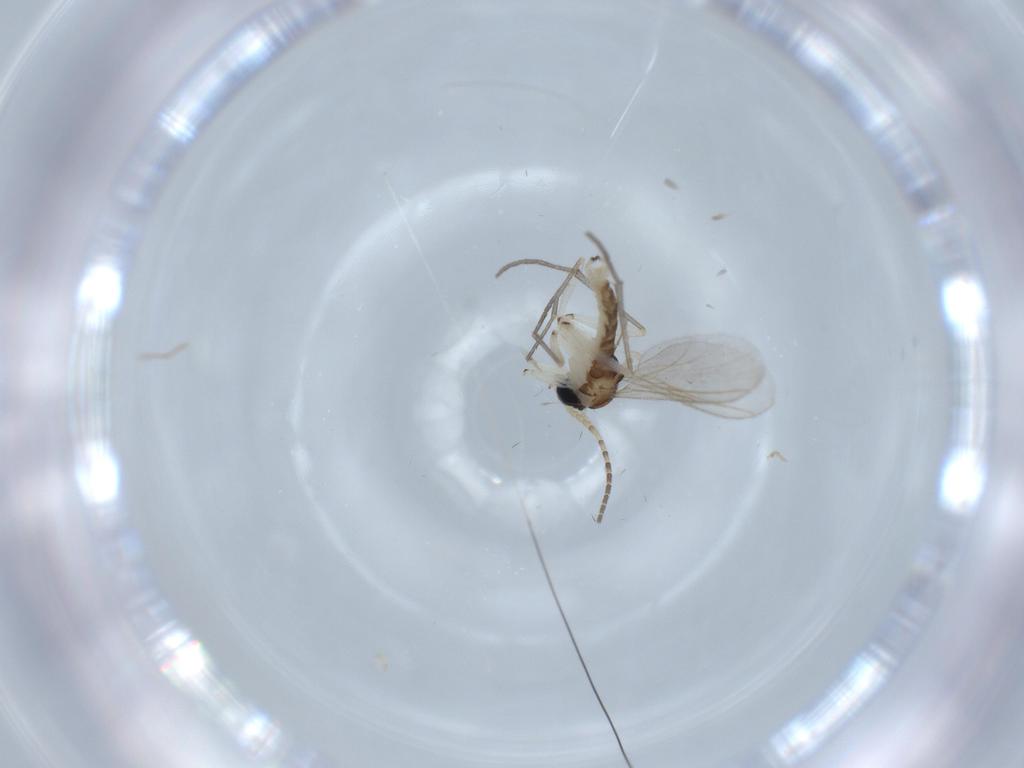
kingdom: Animalia
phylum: Arthropoda
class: Insecta
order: Diptera
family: Sciaridae
